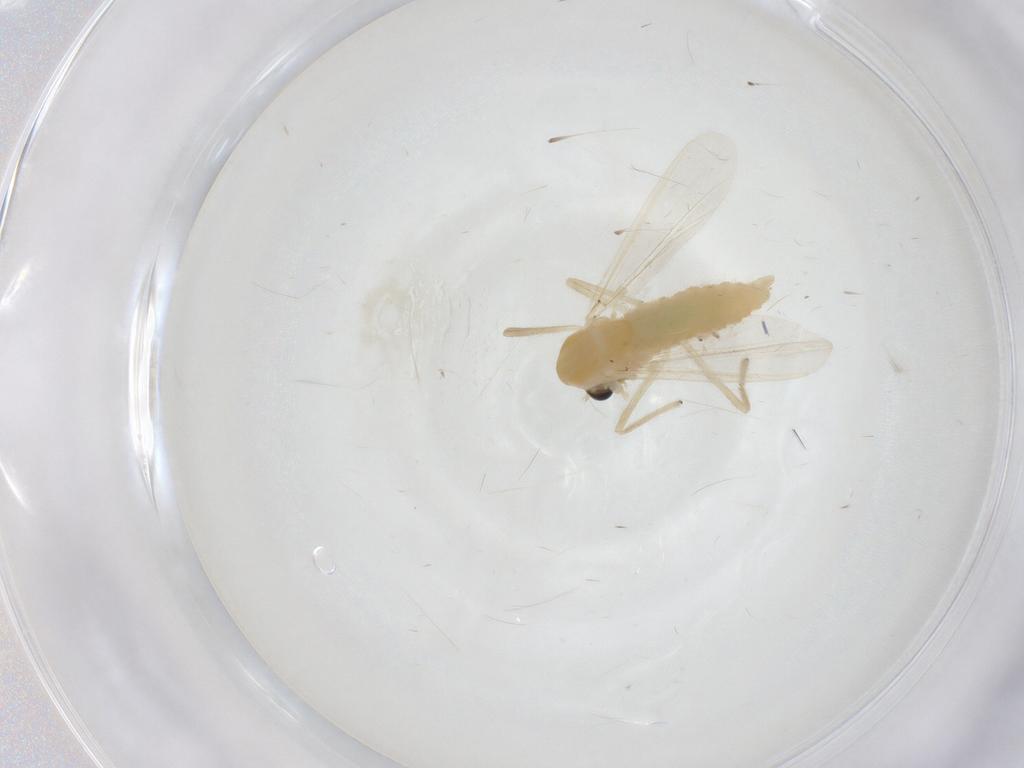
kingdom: Animalia
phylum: Arthropoda
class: Insecta
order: Diptera
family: Chironomidae
